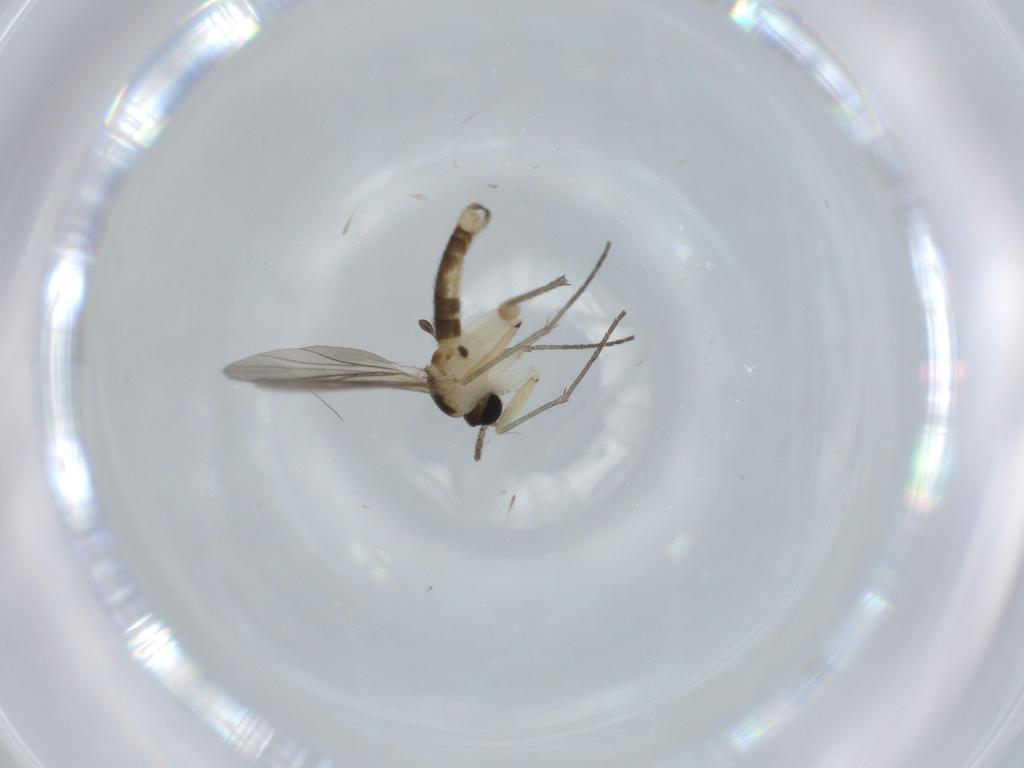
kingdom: Animalia
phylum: Arthropoda
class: Insecta
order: Diptera
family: Sciaridae
